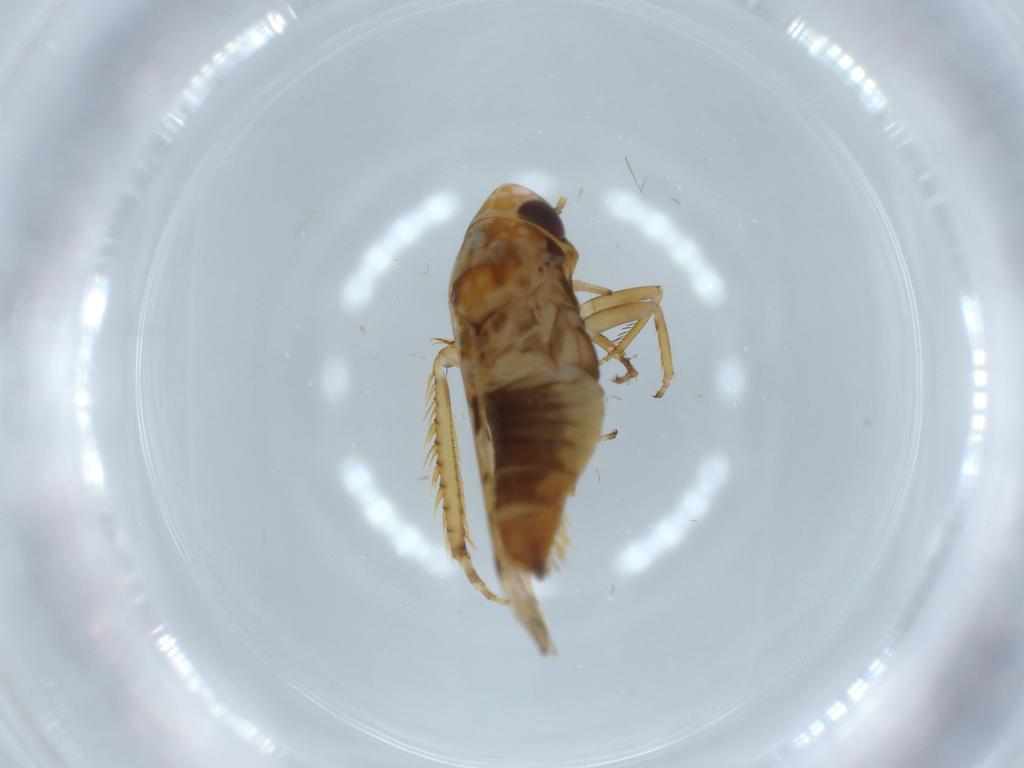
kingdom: Animalia
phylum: Arthropoda
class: Insecta
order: Hemiptera
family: Cicadellidae
